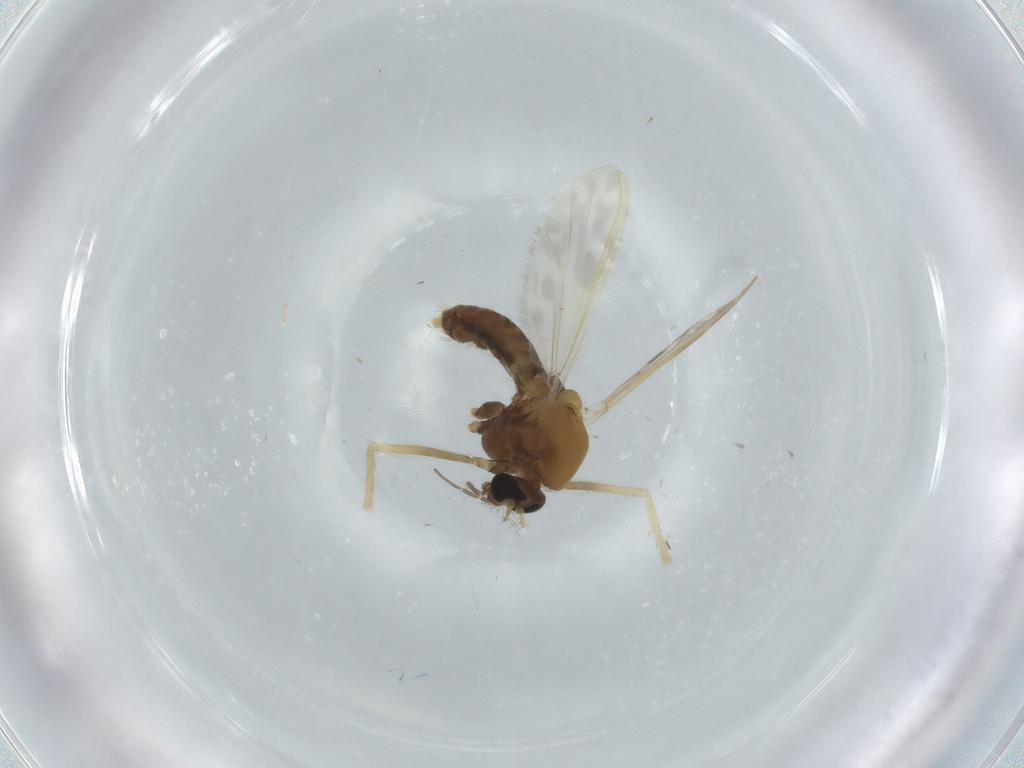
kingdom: Animalia
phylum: Arthropoda
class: Insecta
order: Diptera
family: Chironomidae
